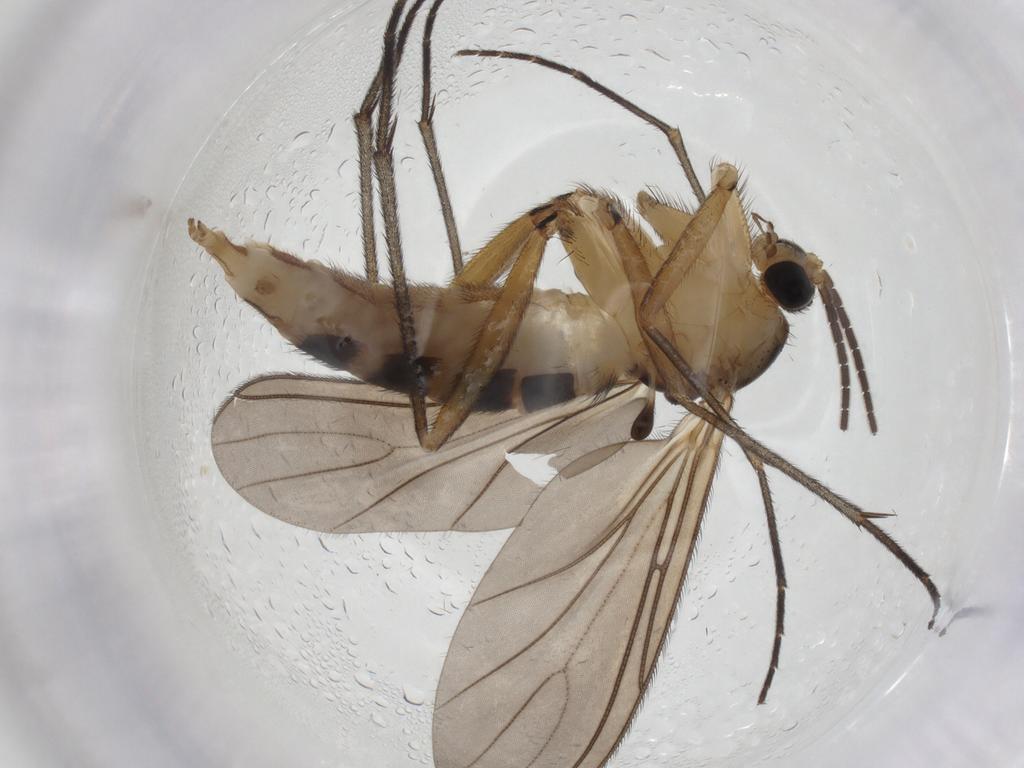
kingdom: Animalia
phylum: Arthropoda
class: Insecta
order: Diptera
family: Sciaridae
